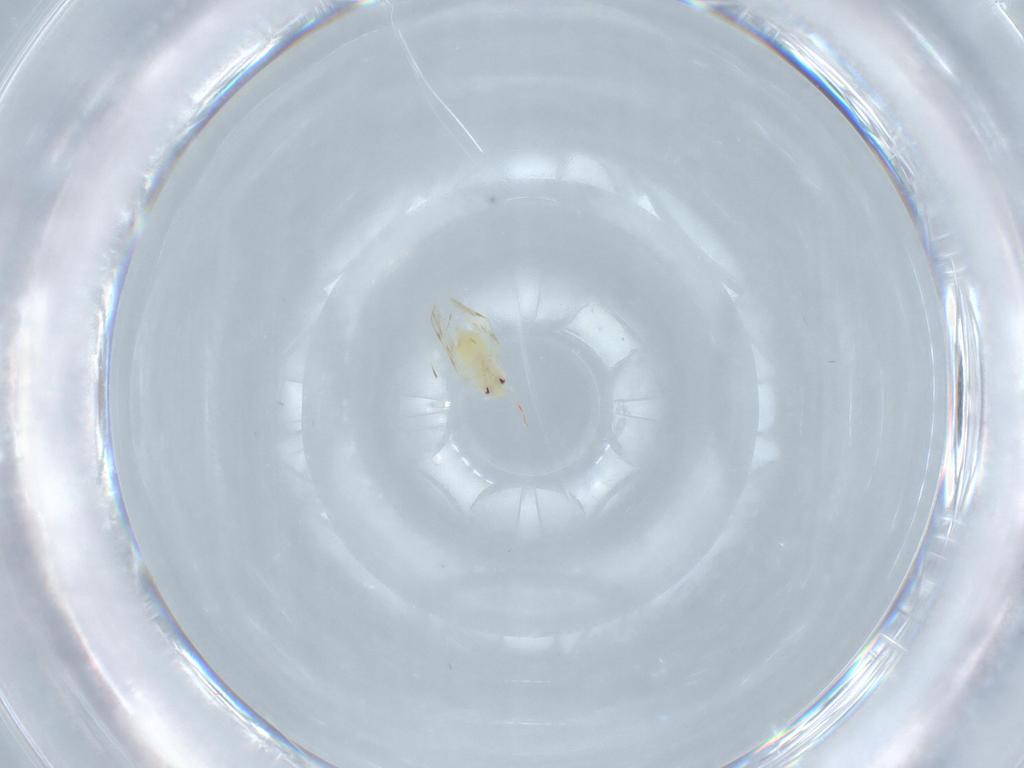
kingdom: Animalia
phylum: Arthropoda
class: Insecta
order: Hemiptera
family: Aleyrodidae
